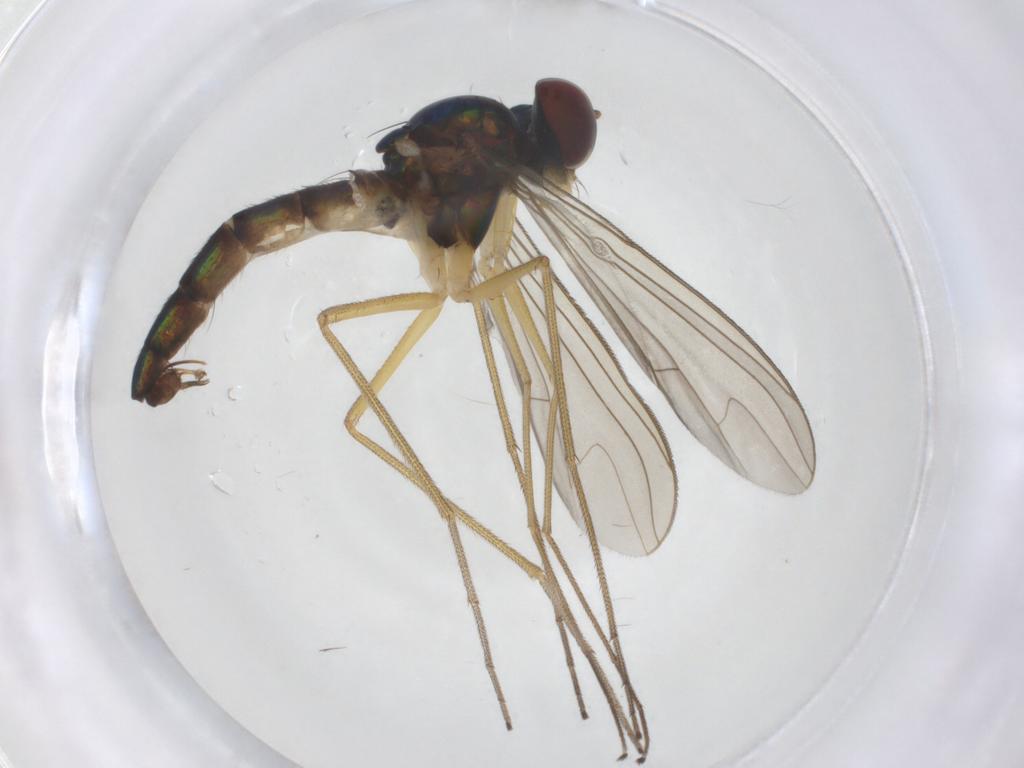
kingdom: Animalia
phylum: Arthropoda
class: Insecta
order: Diptera
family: Dolichopodidae
